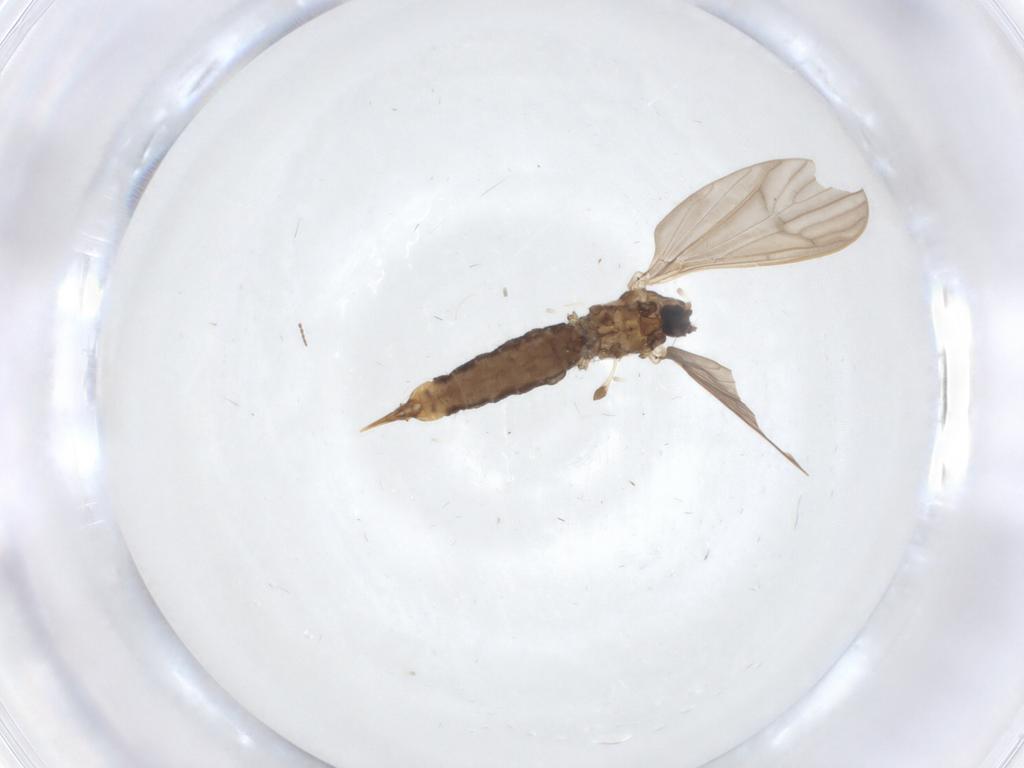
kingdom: Animalia
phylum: Arthropoda
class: Insecta
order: Diptera
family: Limoniidae
